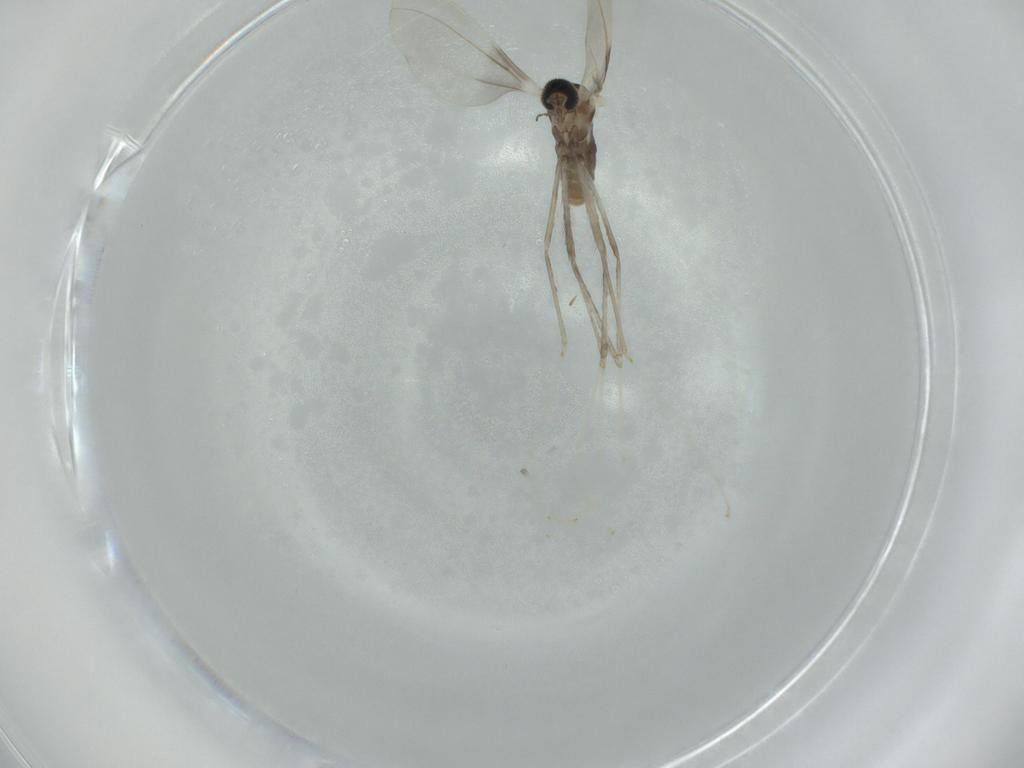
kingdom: Animalia
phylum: Arthropoda
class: Insecta
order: Diptera
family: Cecidomyiidae
